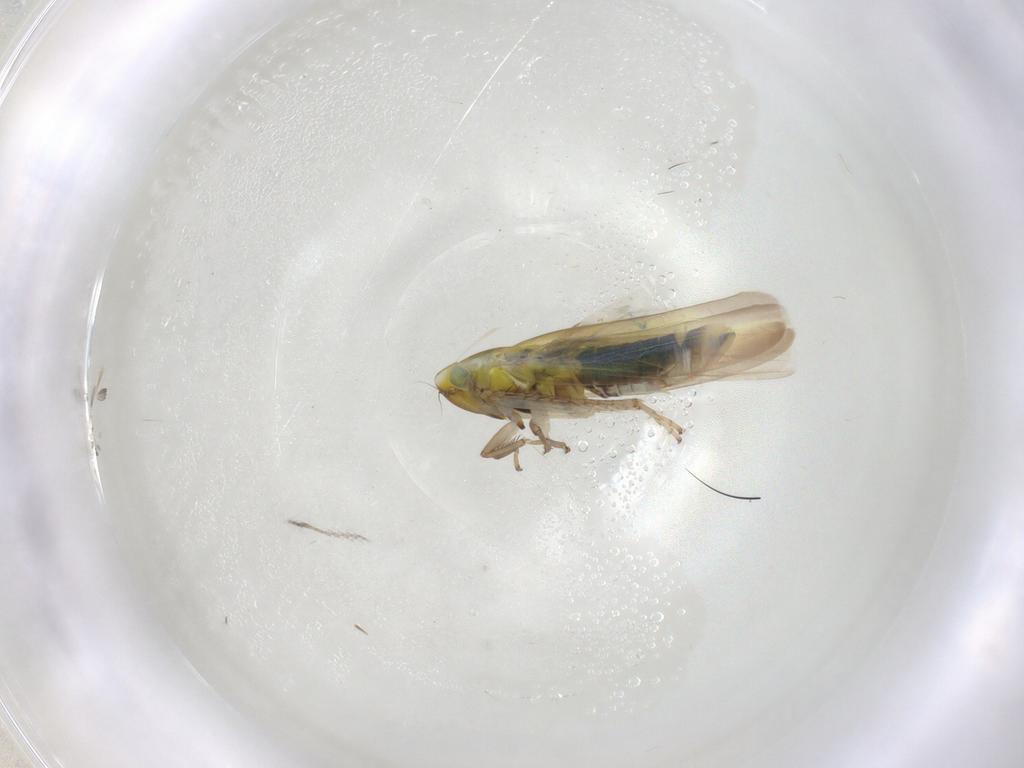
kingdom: Animalia
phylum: Arthropoda
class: Insecta
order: Hemiptera
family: Cicadellidae
